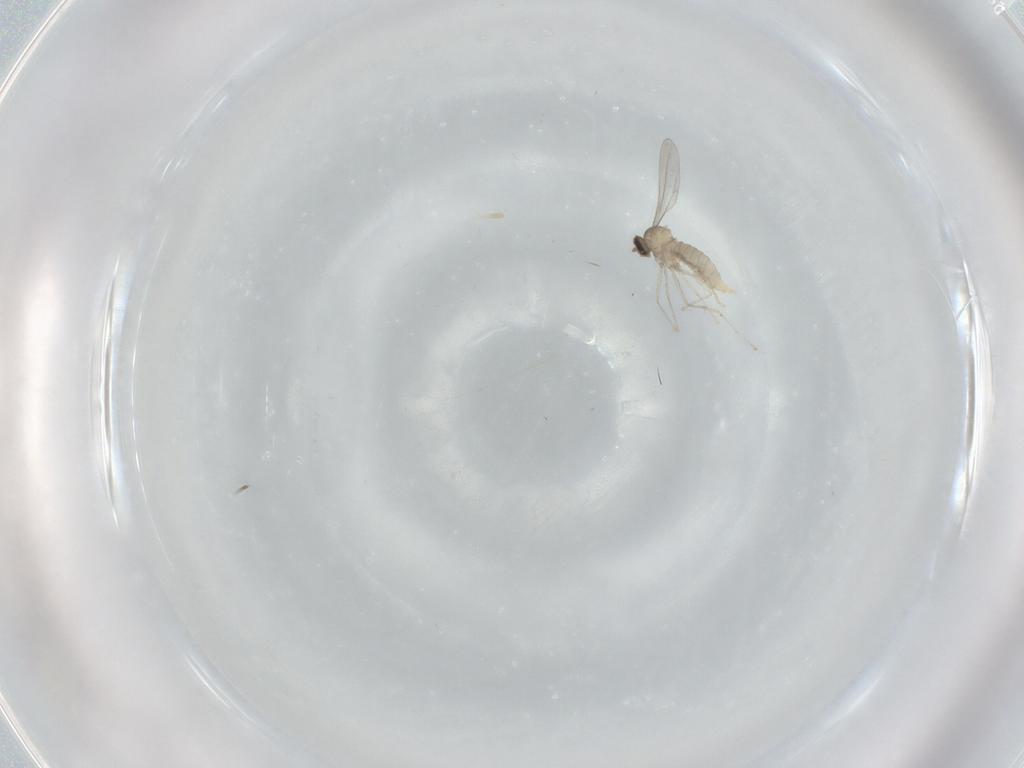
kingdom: Animalia
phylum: Arthropoda
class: Insecta
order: Diptera
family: Cecidomyiidae
